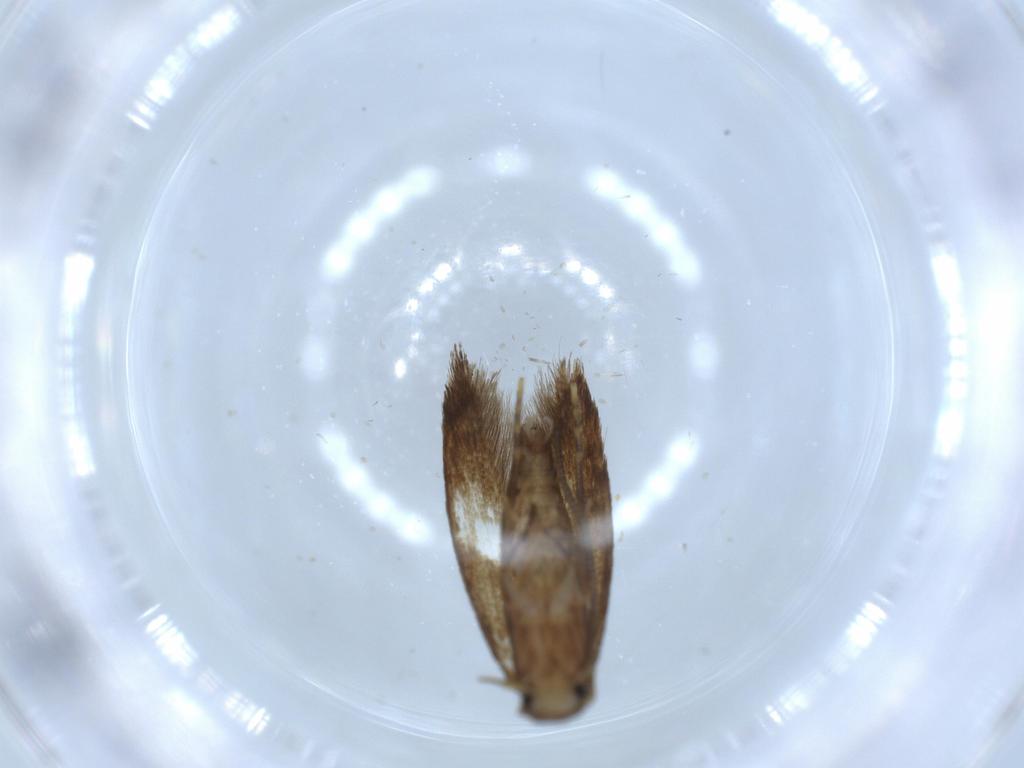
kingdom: Animalia
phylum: Arthropoda
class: Insecta
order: Lepidoptera
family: Tineidae
